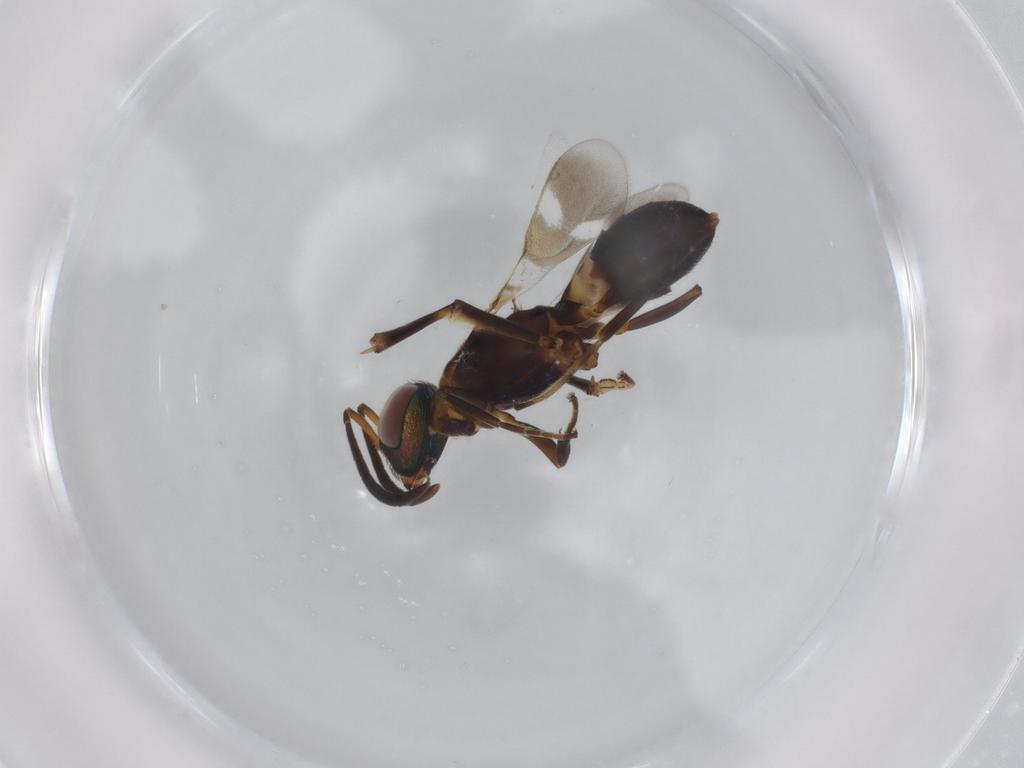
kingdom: Animalia
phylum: Arthropoda
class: Insecta
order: Hymenoptera
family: Eupelmidae
